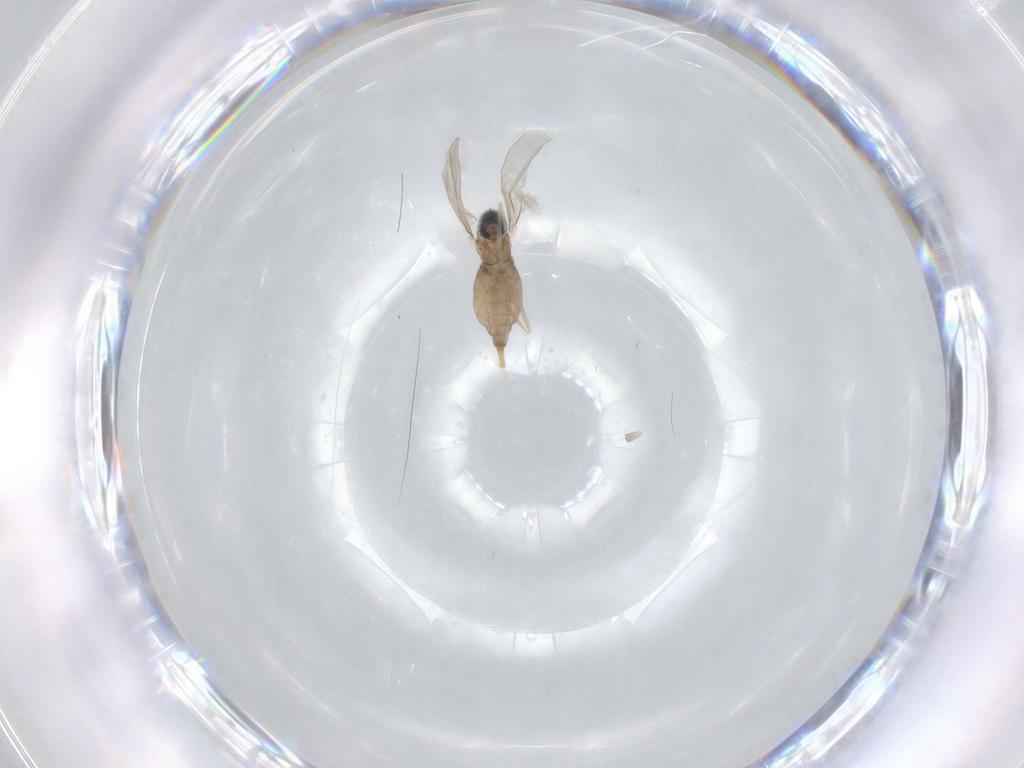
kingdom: Animalia
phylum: Arthropoda
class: Insecta
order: Diptera
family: Cecidomyiidae
